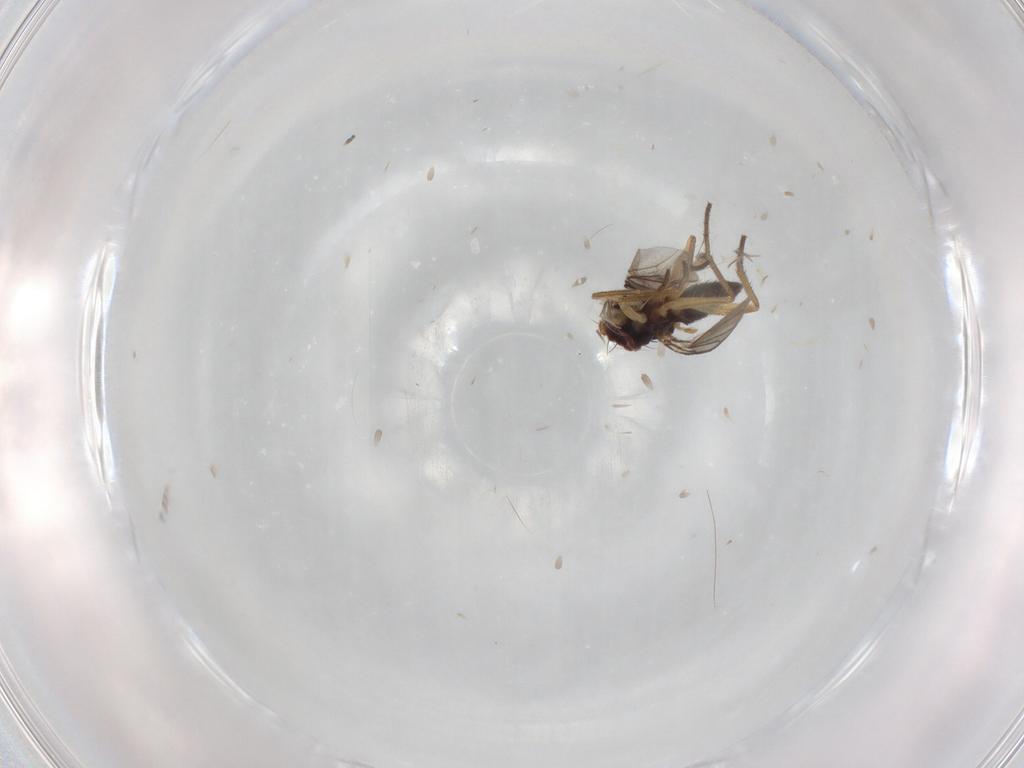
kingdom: Animalia
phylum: Arthropoda
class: Insecta
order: Diptera
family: Dolichopodidae
